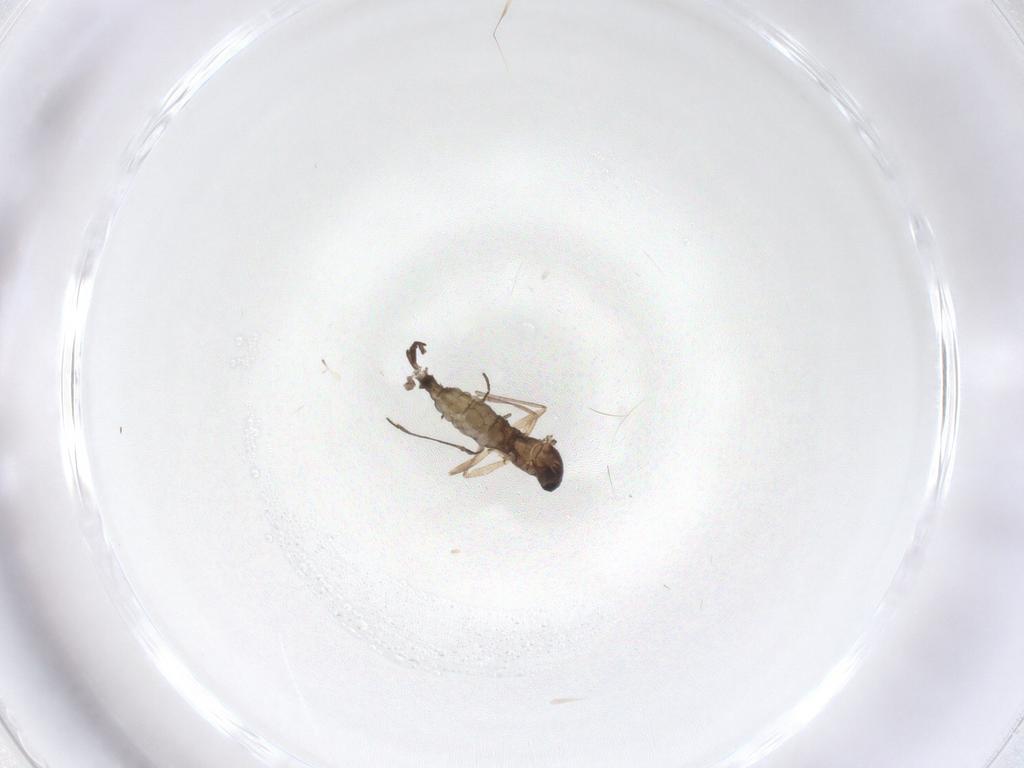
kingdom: Animalia
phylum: Arthropoda
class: Insecta
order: Diptera
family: Sciaridae
